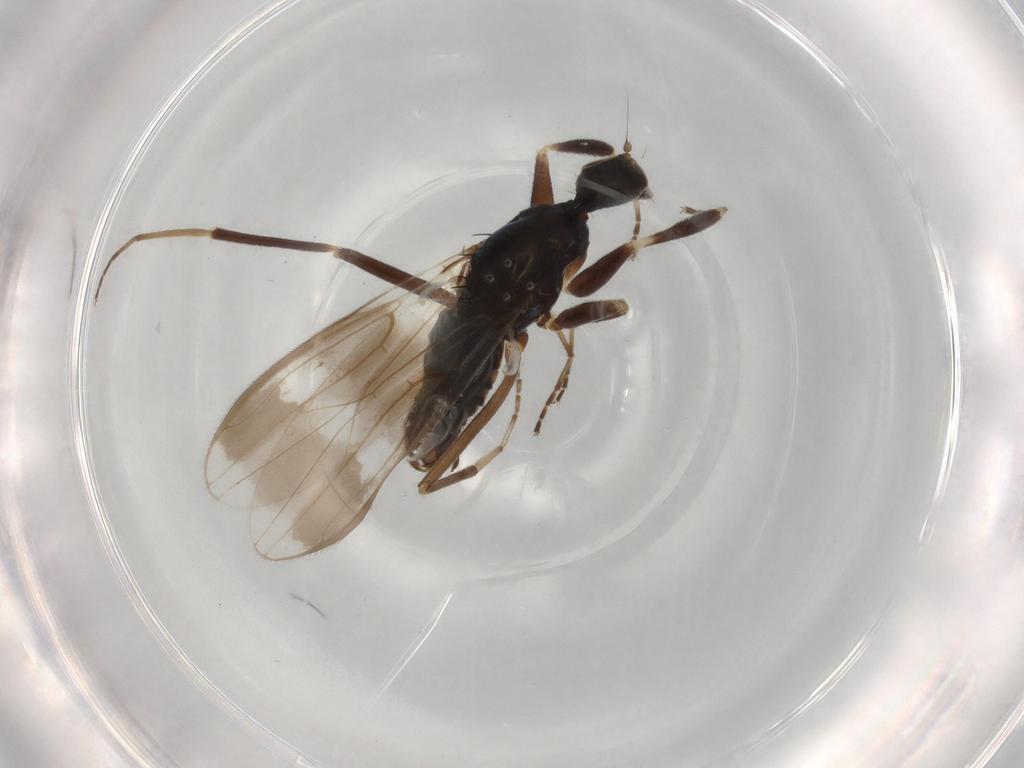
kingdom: Animalia
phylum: Arthropoda
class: Insecta
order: Diptera
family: Hybotidae
